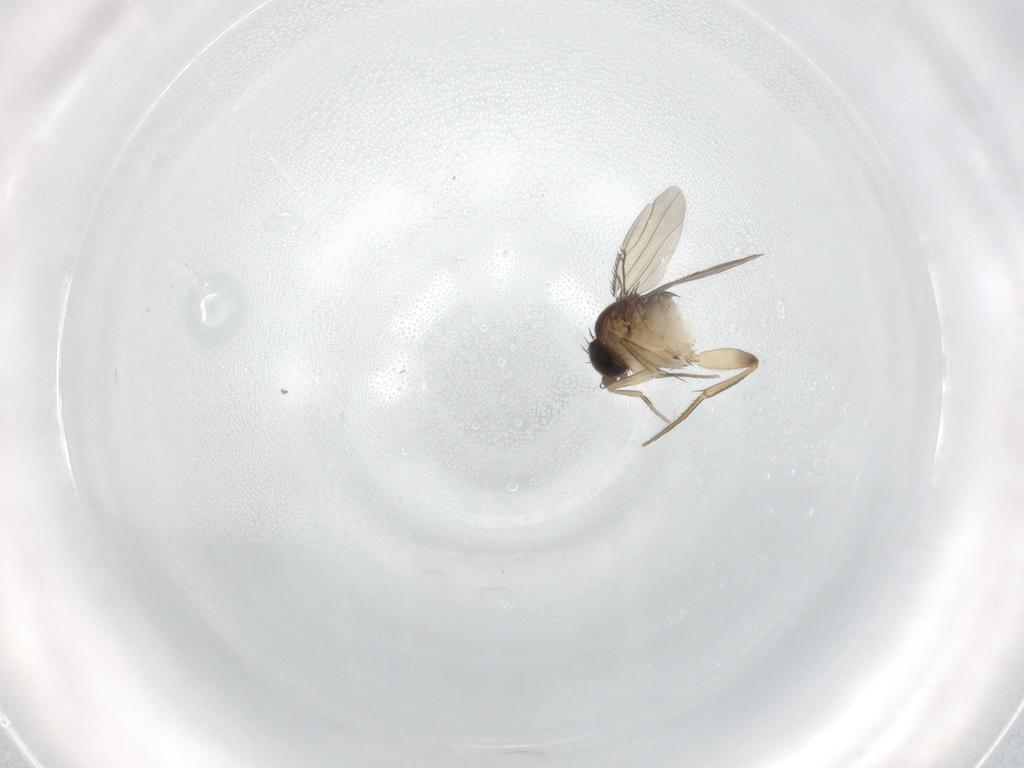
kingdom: Animalia
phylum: Arthropoda
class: Insecta
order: Diptera
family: Phoridae
